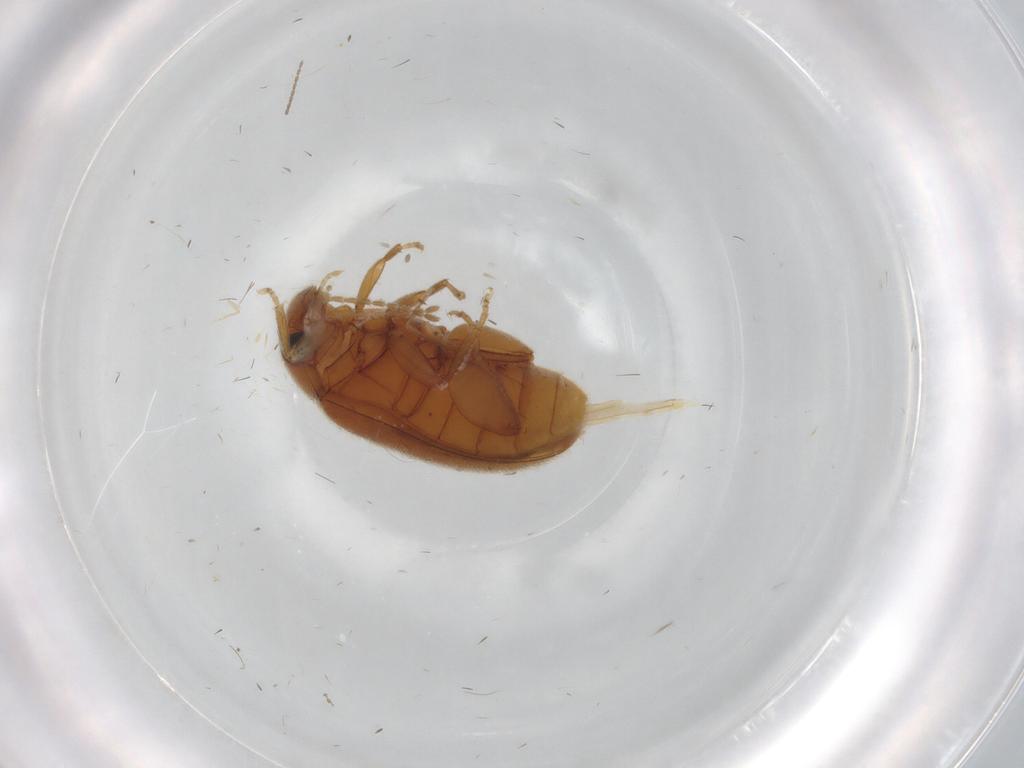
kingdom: Animalia
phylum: Arthropoda
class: Insecta
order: Coleoptera
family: Scirtidae
